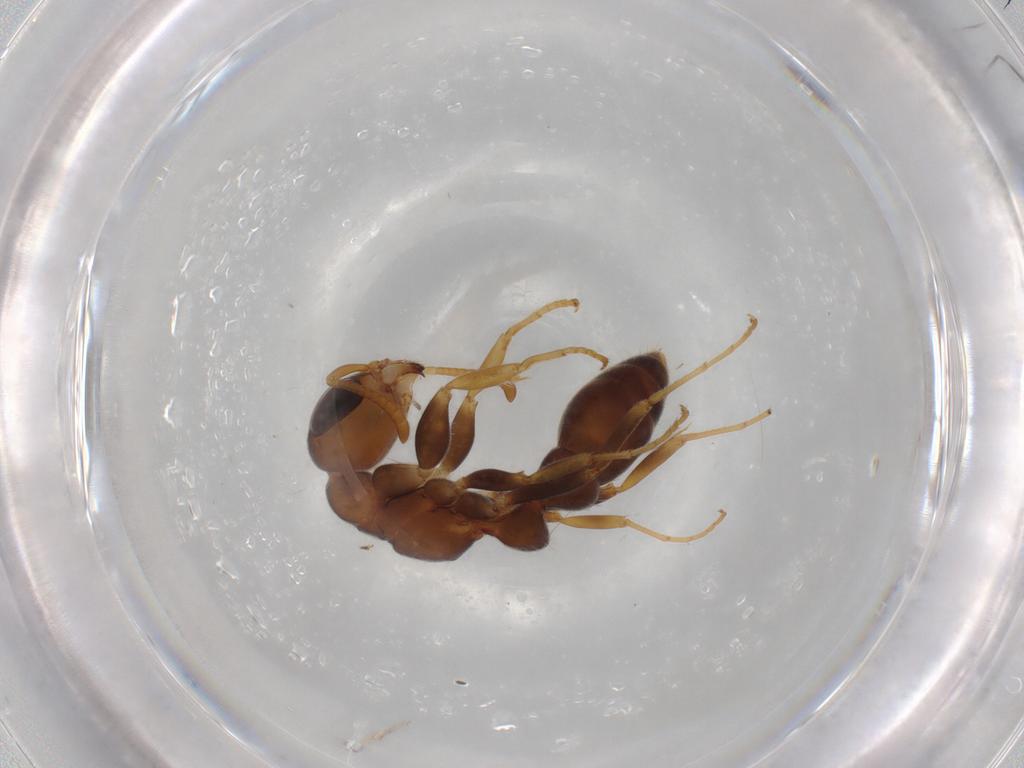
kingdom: Animalia
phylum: Arthropoda
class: Insecta
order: Hymenoptera
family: Formicidae
